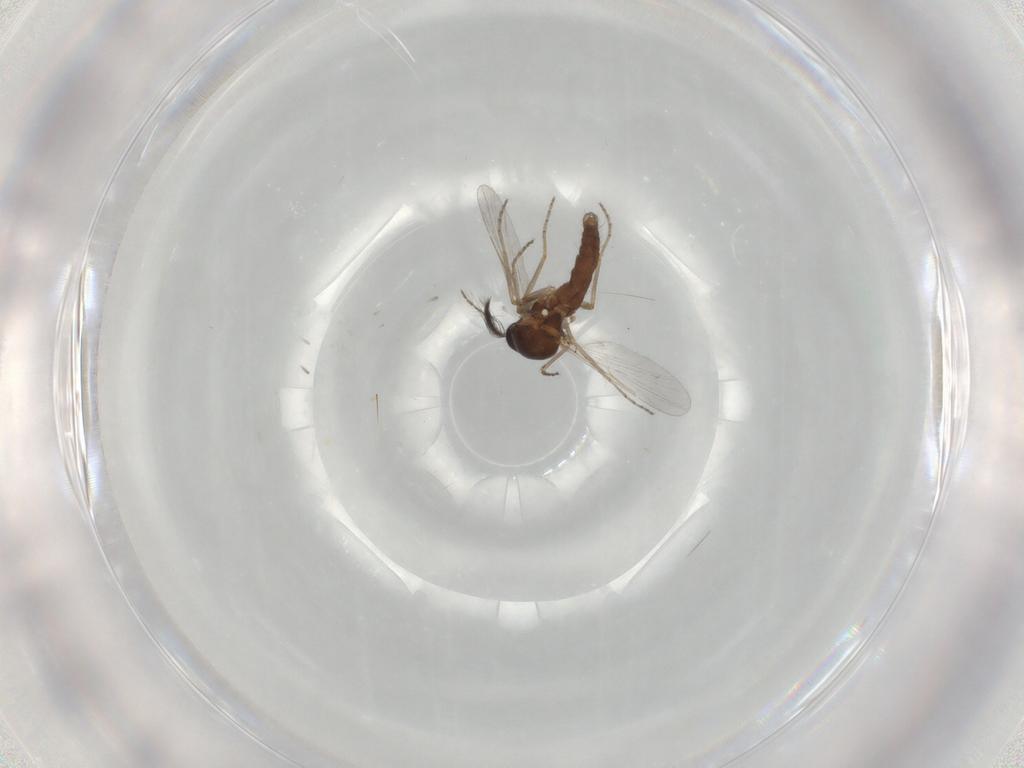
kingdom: Animalia
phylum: Arthropoda
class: Insecta
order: Diptera
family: Ceratopogonidae
